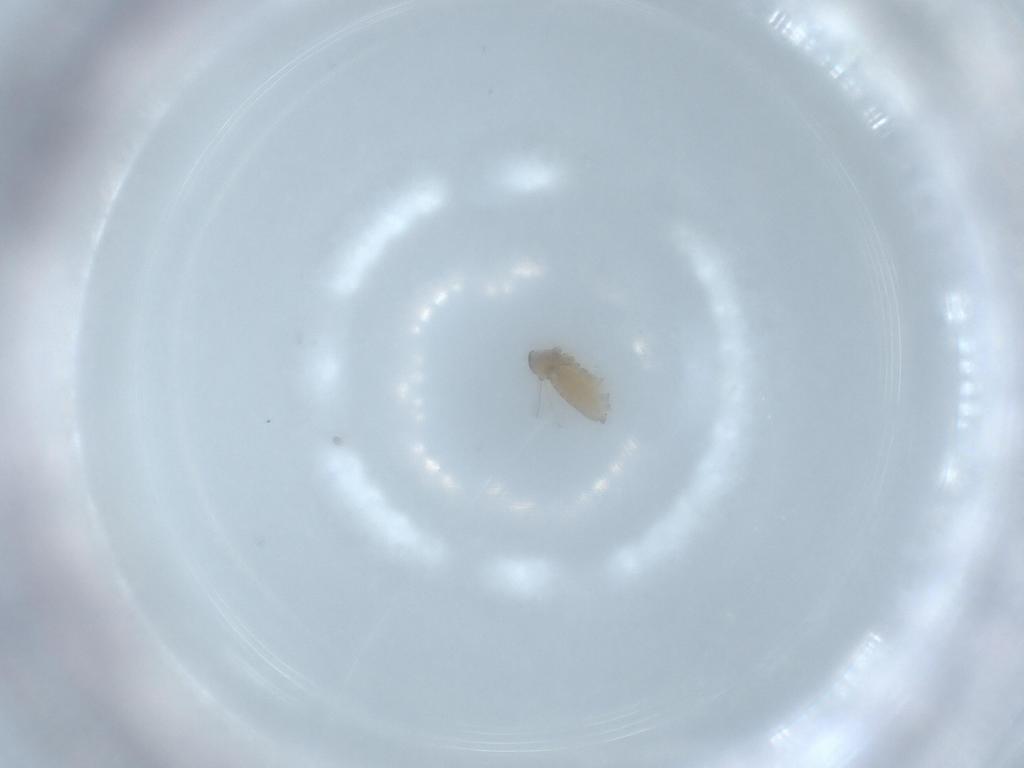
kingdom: Animalia
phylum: Arthropoda
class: Insecta
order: Diptera
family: Cecidomyiidae
